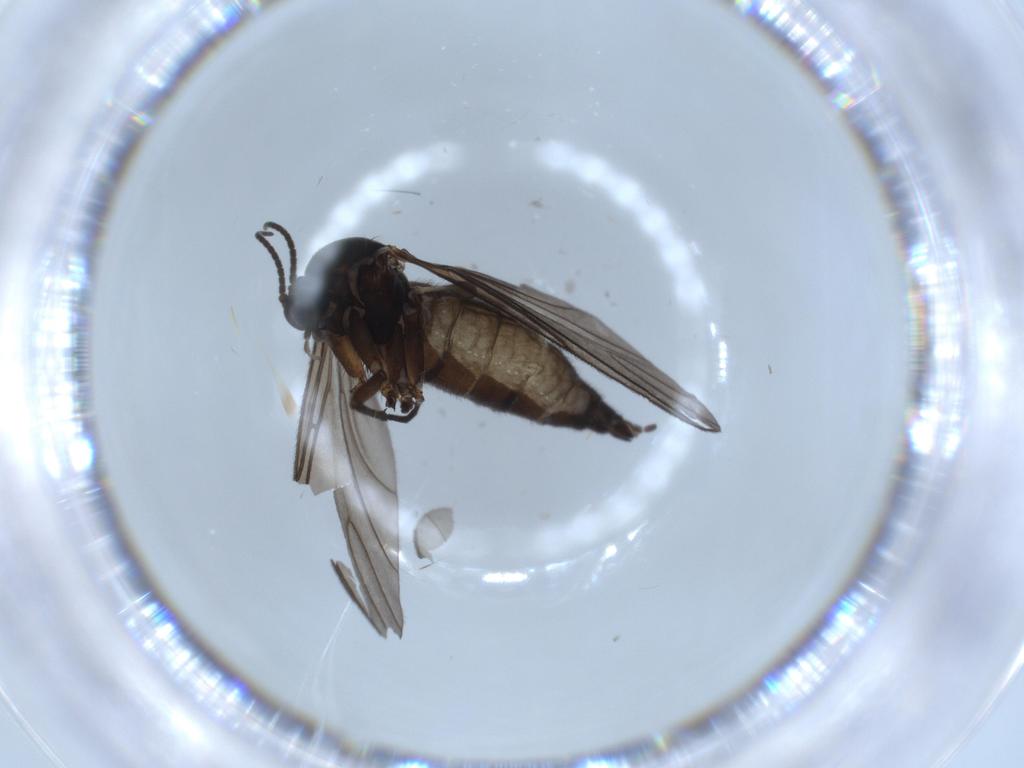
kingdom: Animalia
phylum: Arthropoda
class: Insecta
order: Diptera
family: Sciaridae
